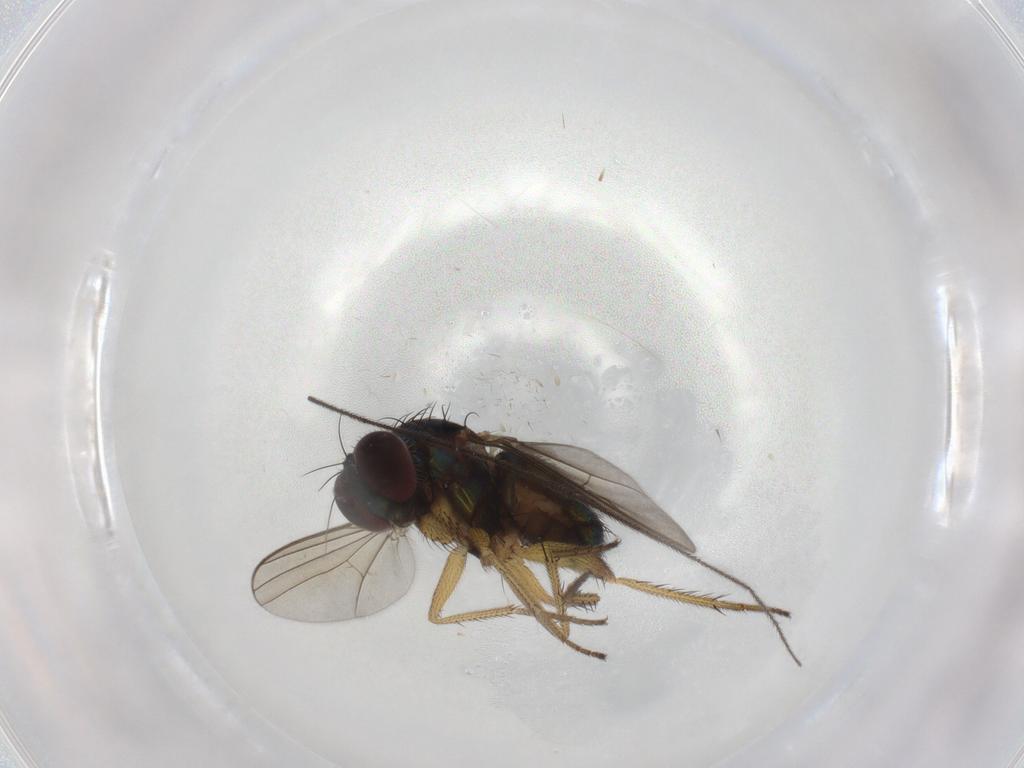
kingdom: Animalia
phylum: Arthropoda
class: Insecta
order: Diptera
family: Dolichopodidae
